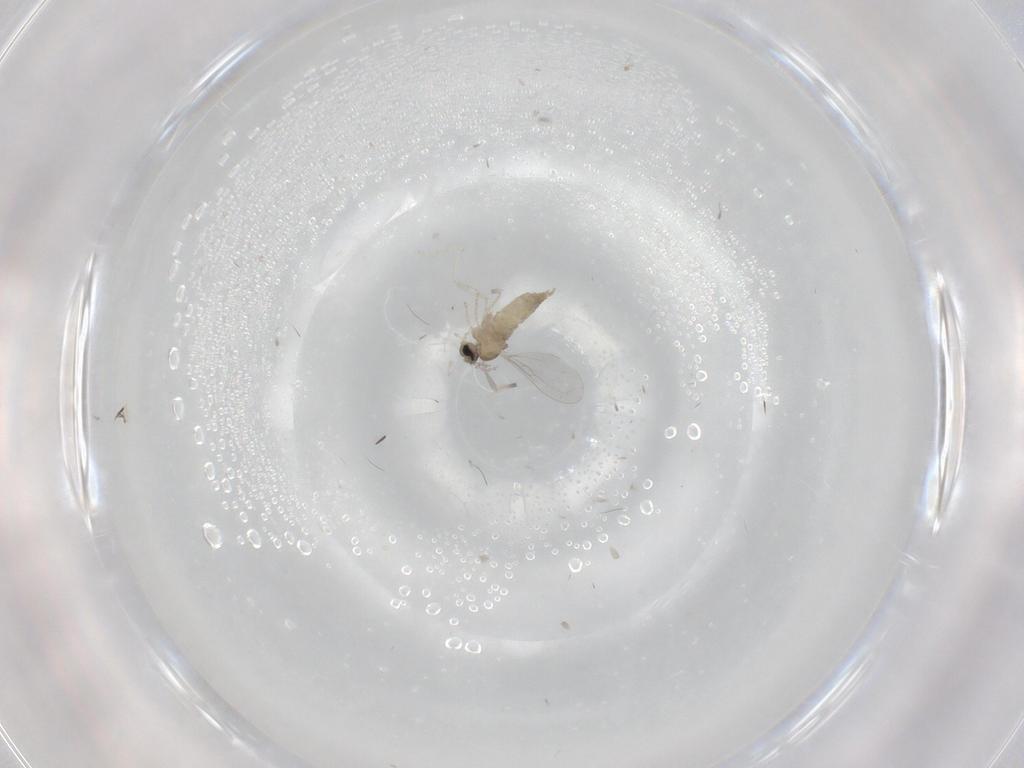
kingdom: Animalia
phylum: Arthropoda
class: Insecta
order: Diptera
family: Cecidomyiidae
